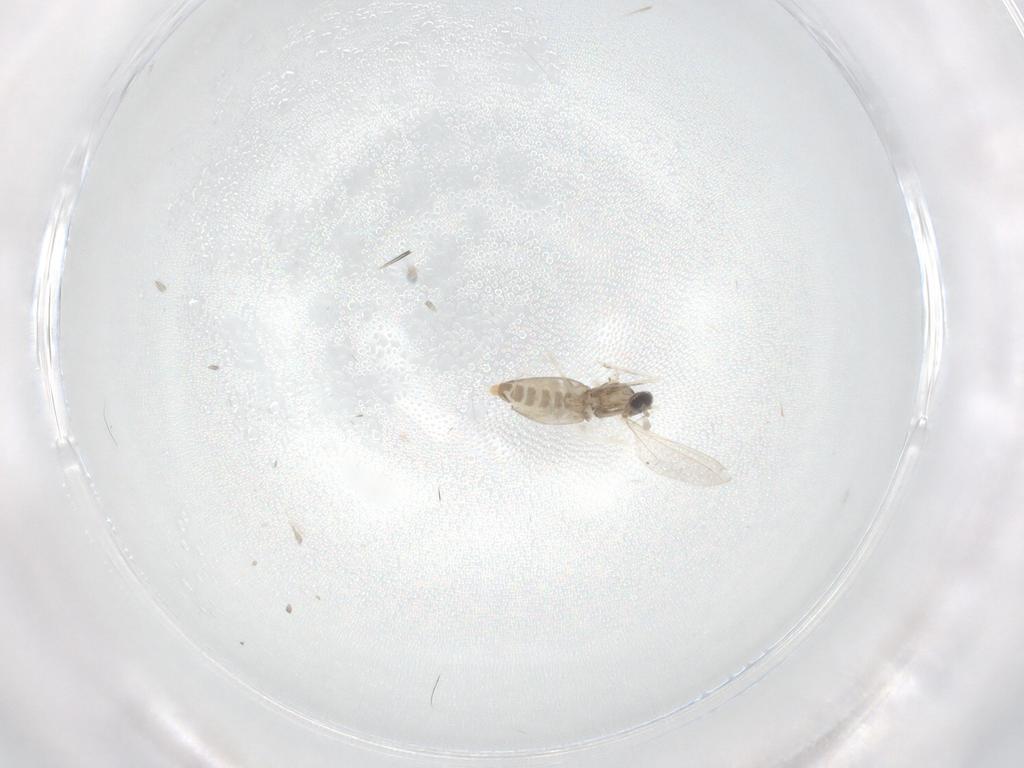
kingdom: Animalia
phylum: Arthropoda
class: Insecta
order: Diptera
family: Cecidomyiidae
